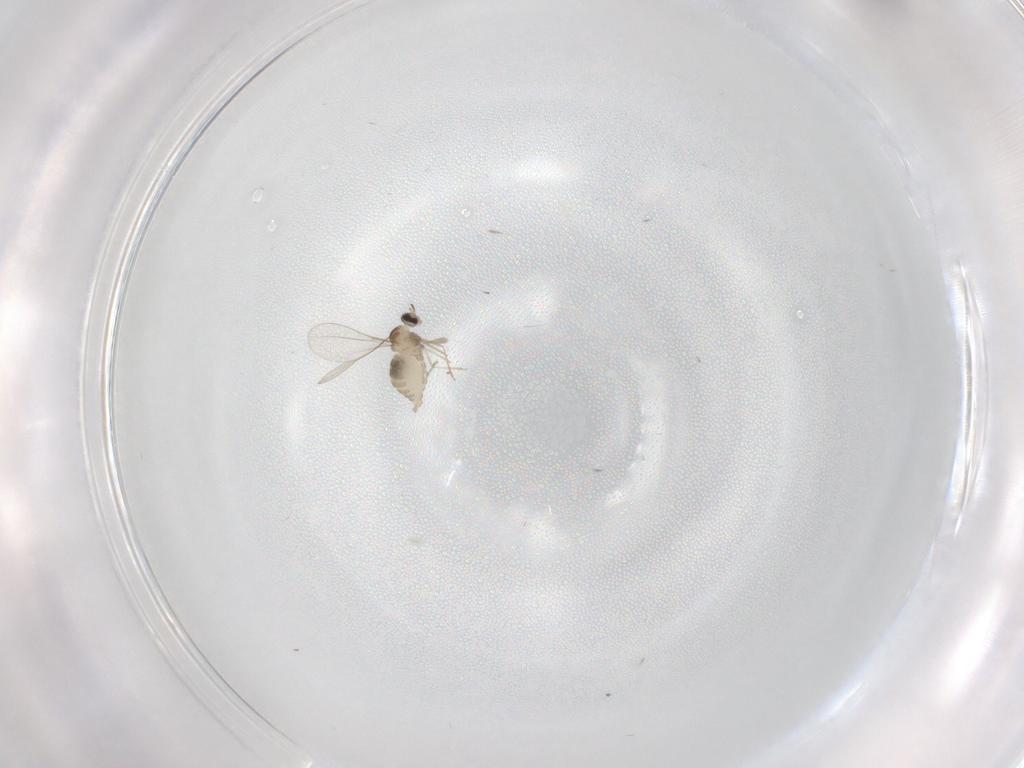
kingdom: Animalia
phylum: Arthropoda
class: Insecta
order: Diptera
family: Cecidomyiidae
